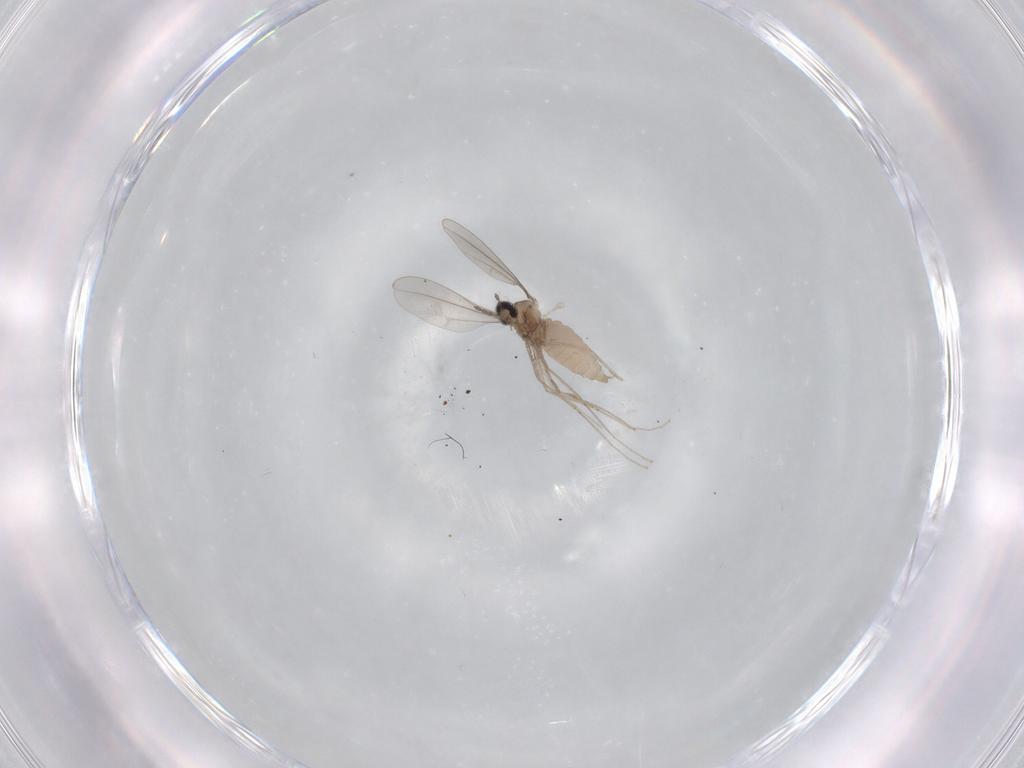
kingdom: Animalia
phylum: Arthropoda
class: Insecta
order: Diptera
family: Cecidomyiidae
